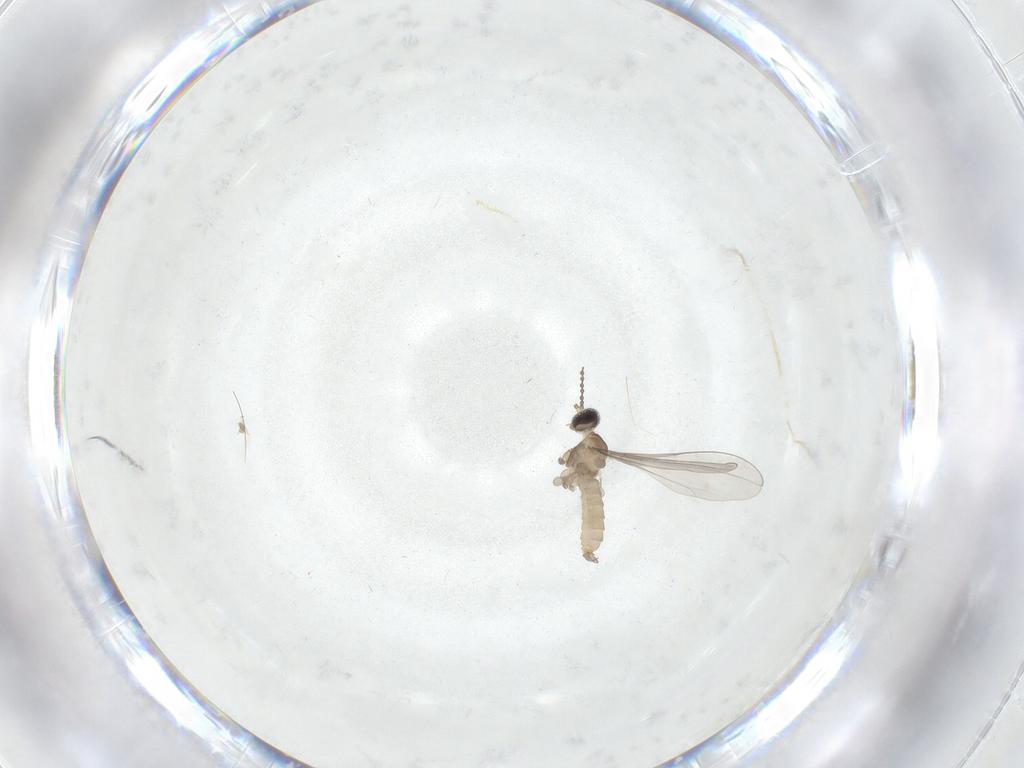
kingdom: Animalia
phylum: Arthropoda
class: Insecta
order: Diptera
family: Cecidomyiidae
